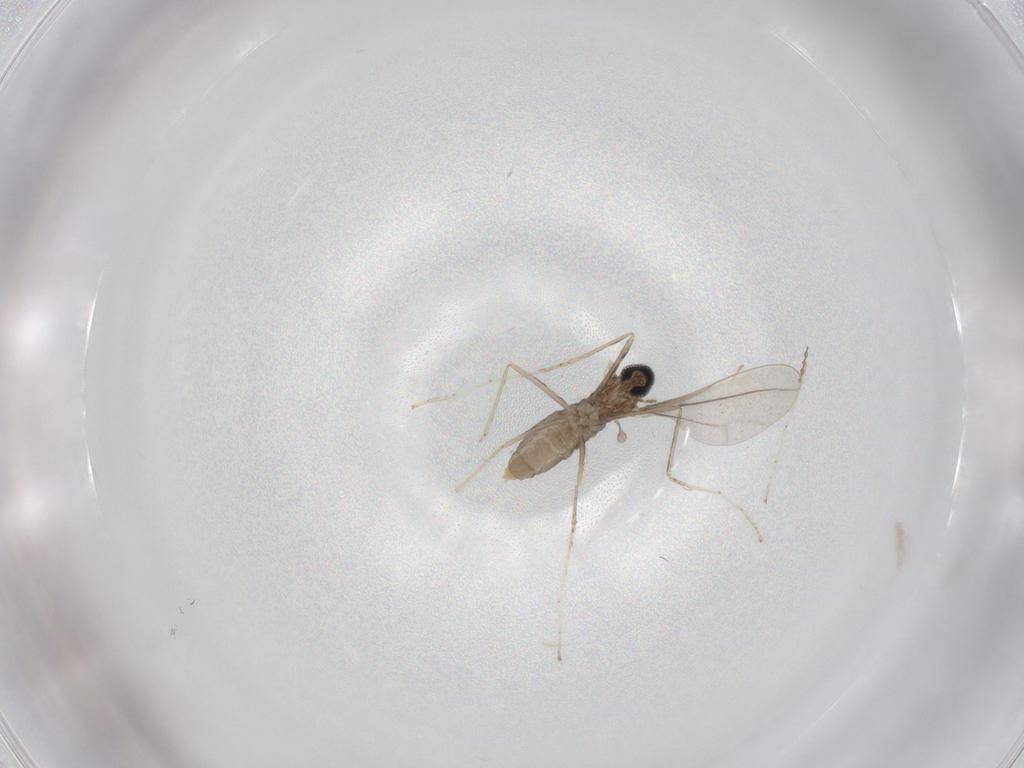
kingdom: Animalia
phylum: Arthropoda
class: Insecta
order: Diptera
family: Cecidomyiidae
